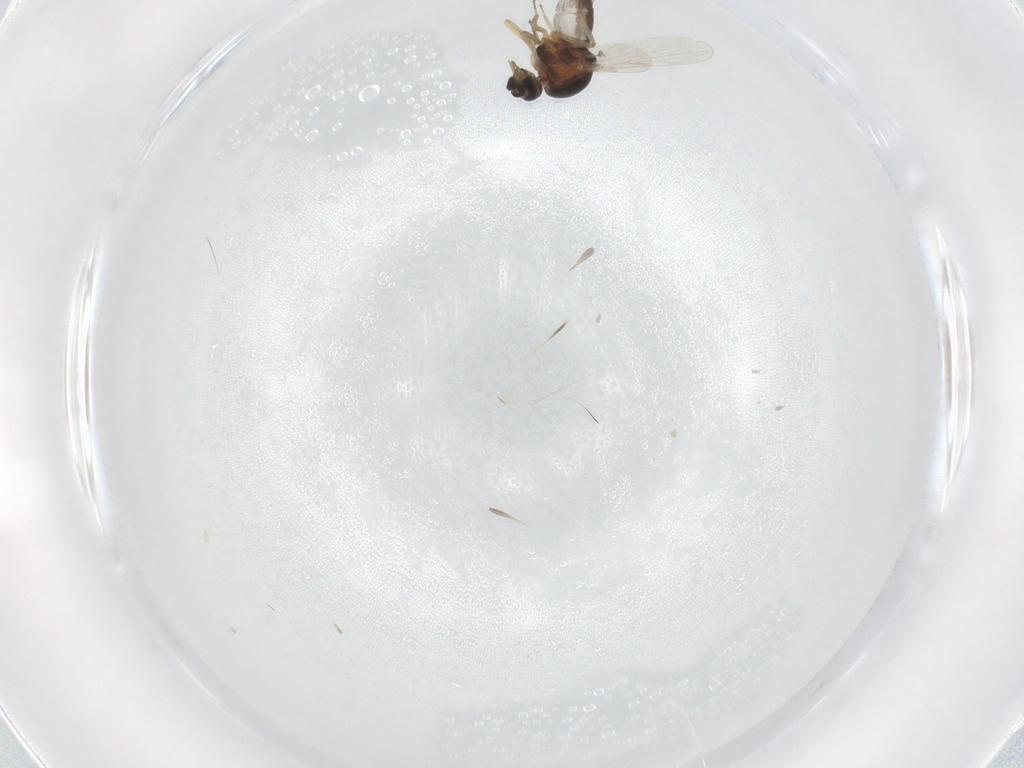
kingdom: Animalia
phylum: Arthropoda
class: Insecta
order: Diptera
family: Ceratopogonidae
